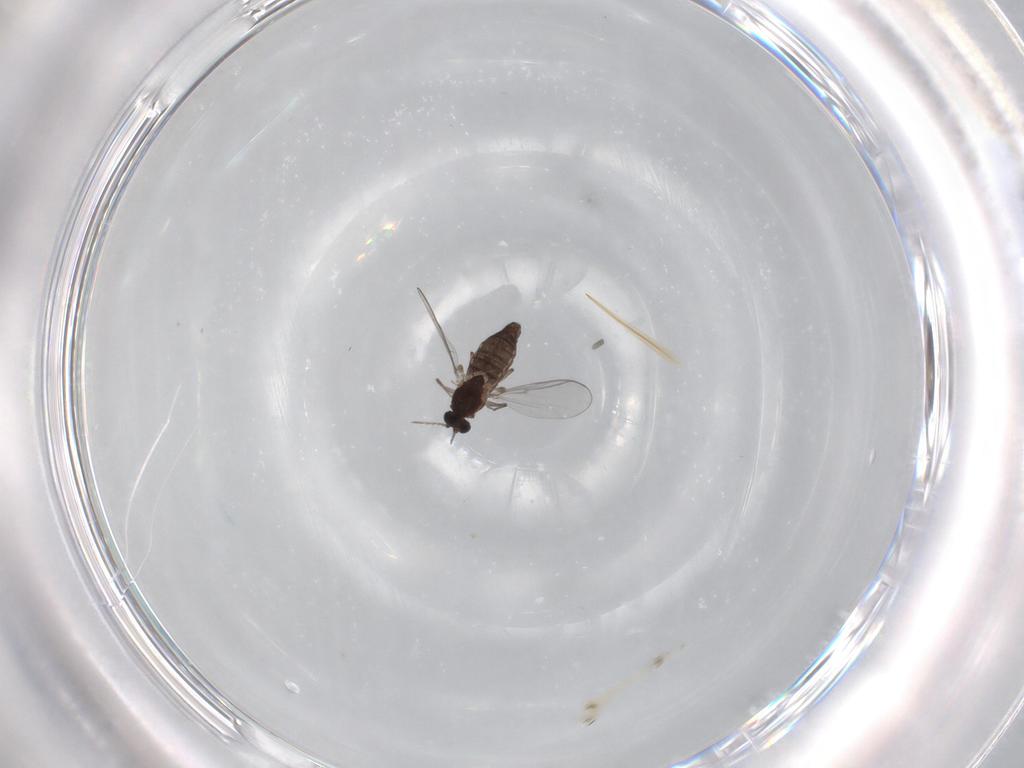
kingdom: Animalia
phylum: Arthropoda
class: Insecta
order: Diptera
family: Chironomidae
